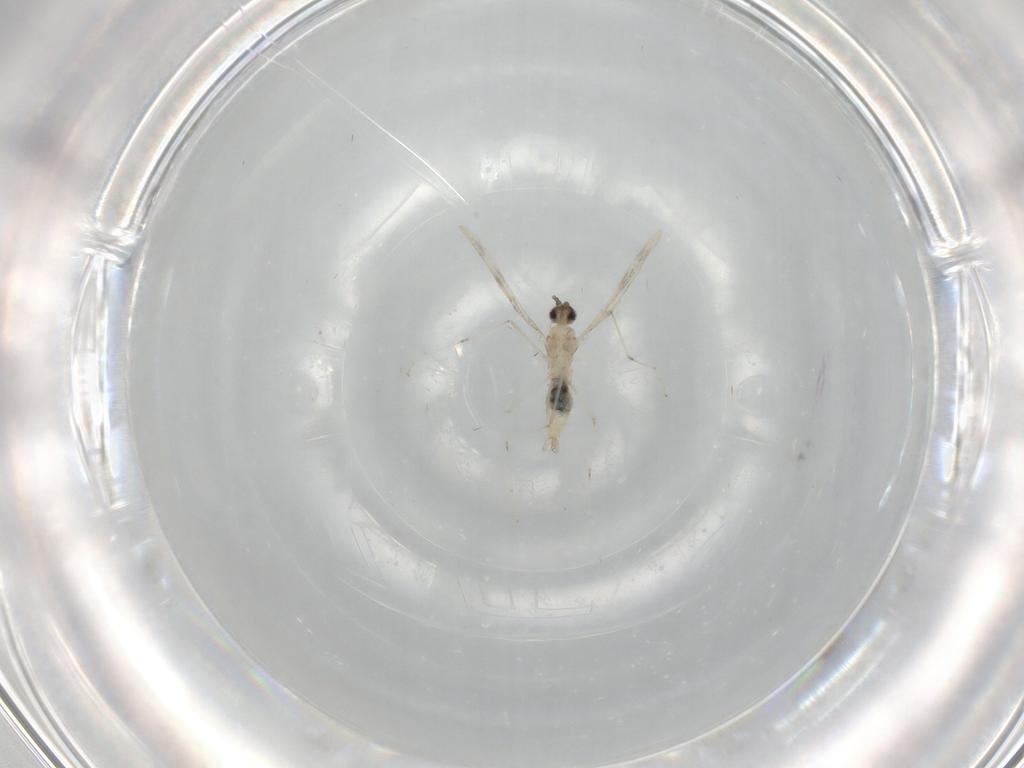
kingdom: Animalia
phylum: Arthropoda
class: Insecta
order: Diptera
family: Cecidomyiidae
